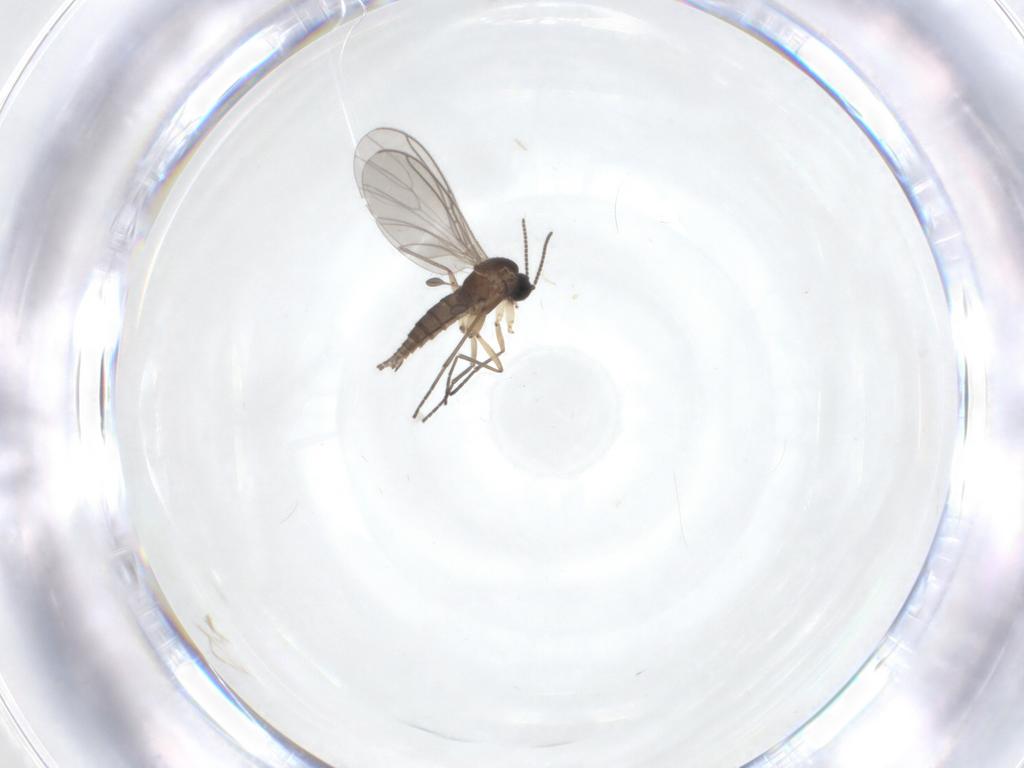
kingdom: Animalia
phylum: Arthropoda
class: Insecta
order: Diptera
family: Sciaridae
